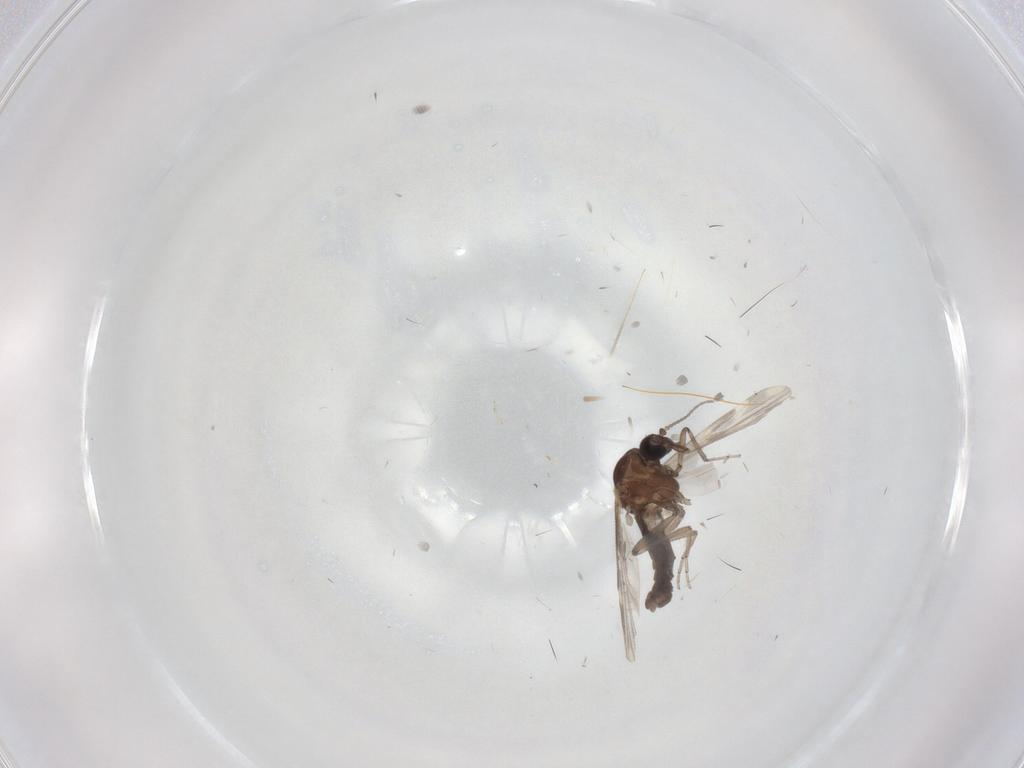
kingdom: Animalia
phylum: Arthropoda
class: Insecta
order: Diptera
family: Ceratopogonidae
